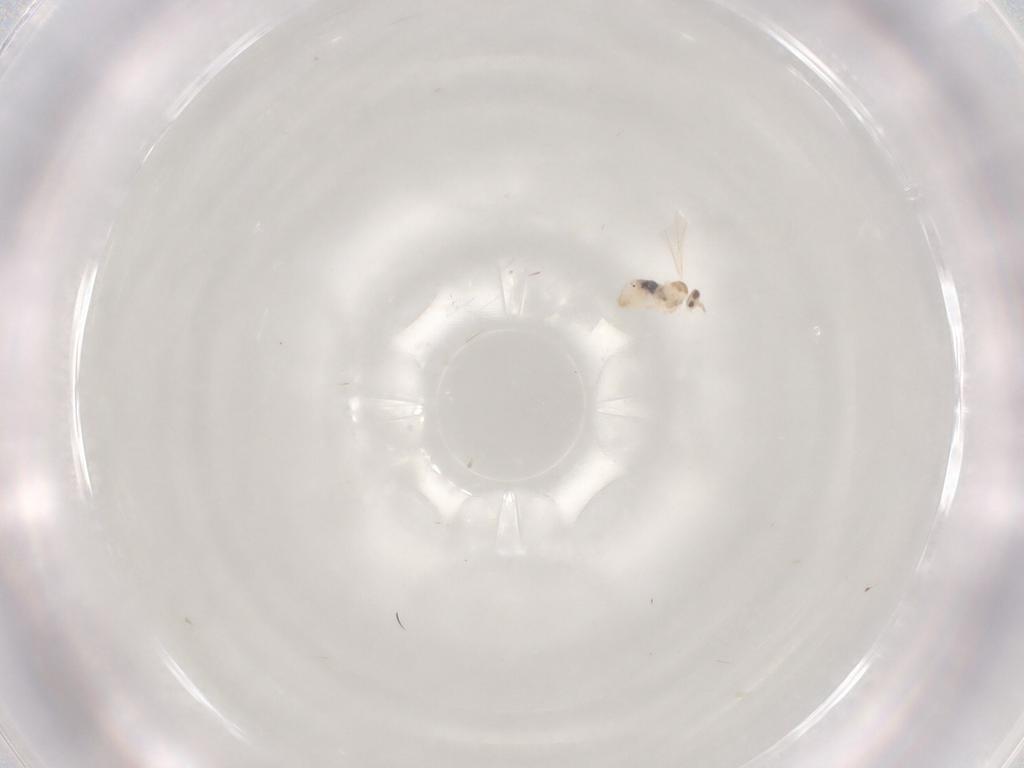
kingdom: Animalia
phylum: Arthropoda
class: Insecta
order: Diptera
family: Cecidomyiidae
